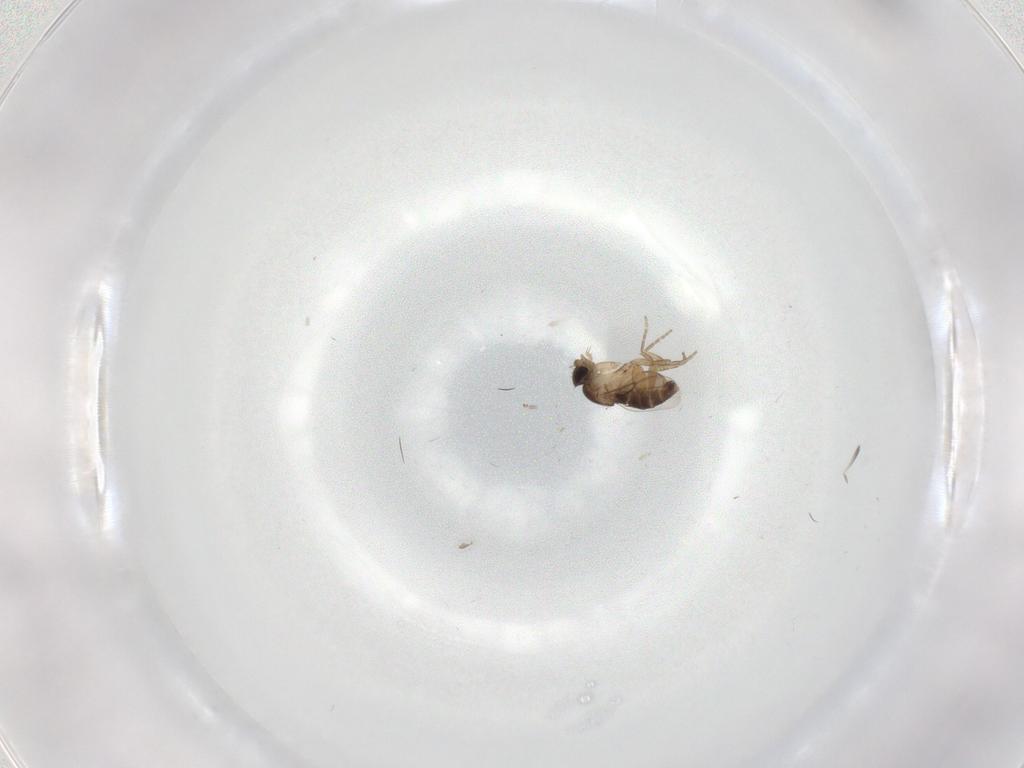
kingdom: Animalia
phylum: Arthropoda
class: Insecta
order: Diptera
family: Phoridae
